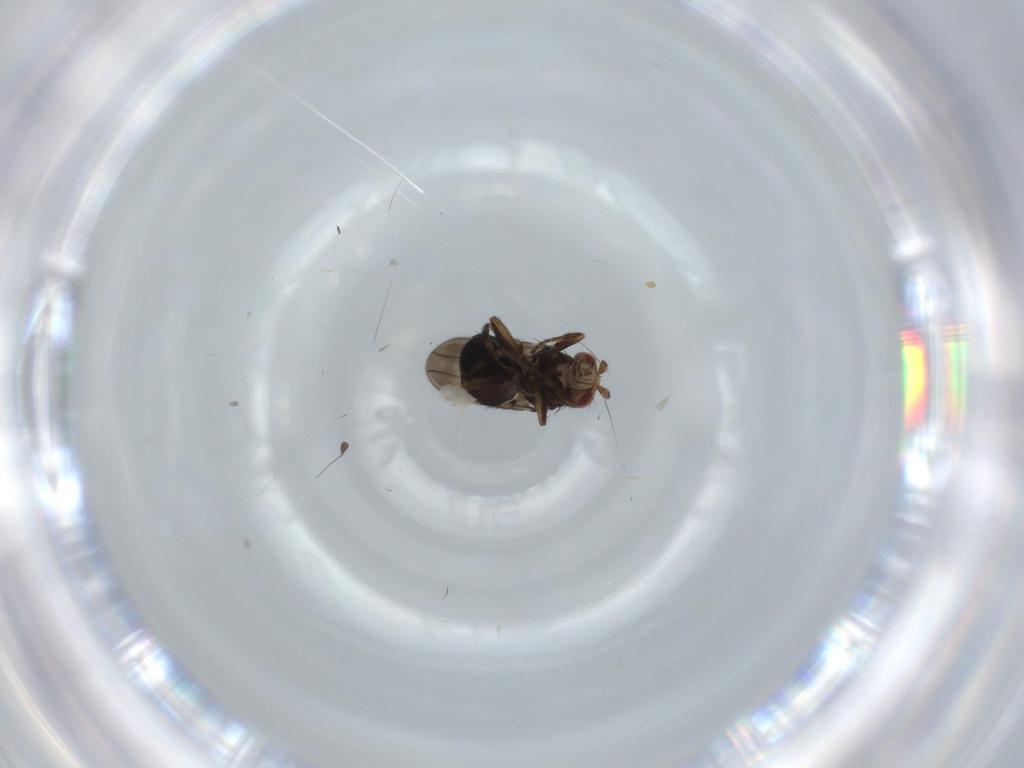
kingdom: Animalia
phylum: Arthropoda
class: Insecta
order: Diptera
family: Hybotidae
